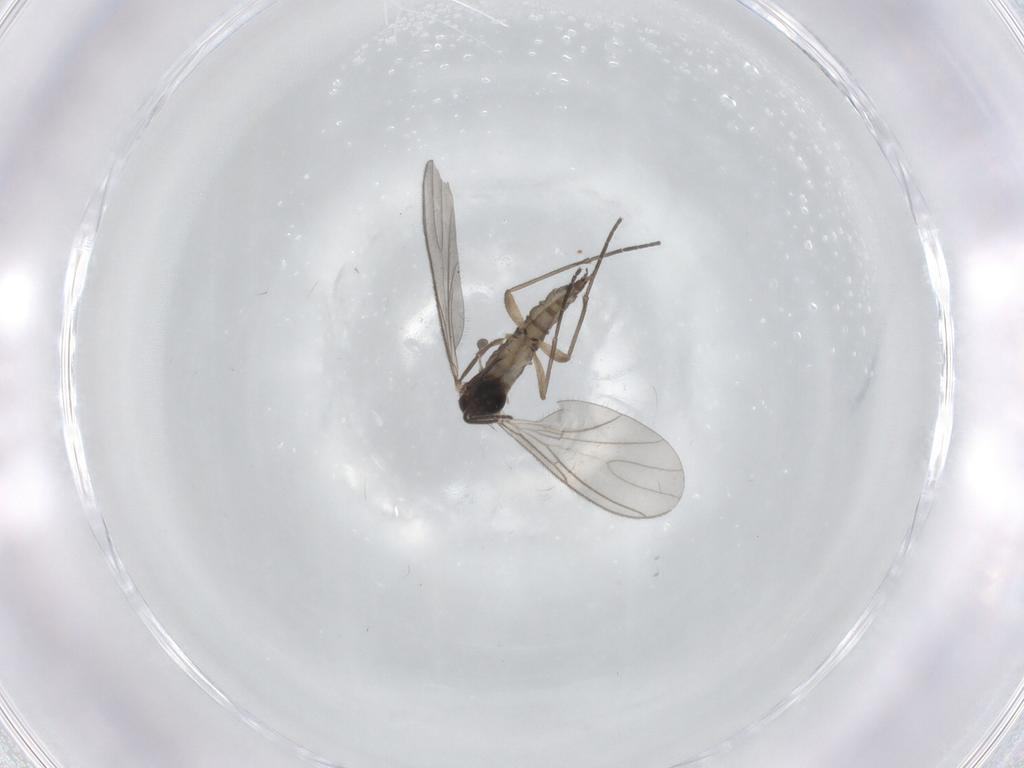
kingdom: Animalia
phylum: Arthropoda
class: Insecta
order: Diptera
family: Sciaridae
